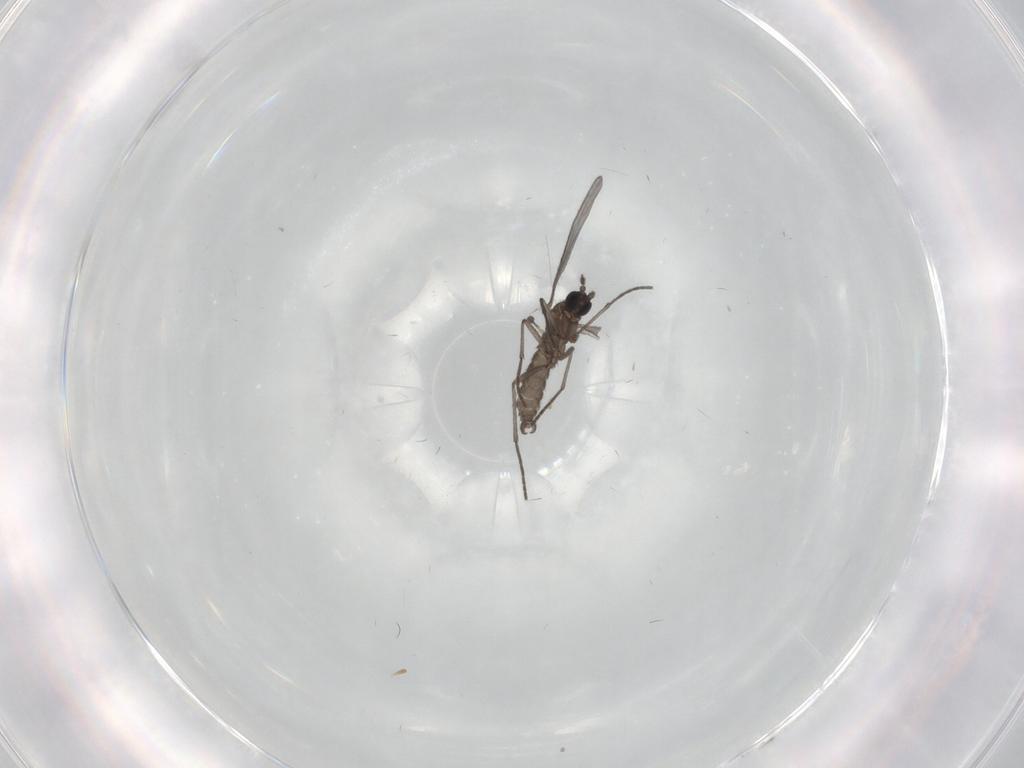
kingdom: Animalia
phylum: Arthropoda
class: Insecta
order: Diptera
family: Sciaridae
